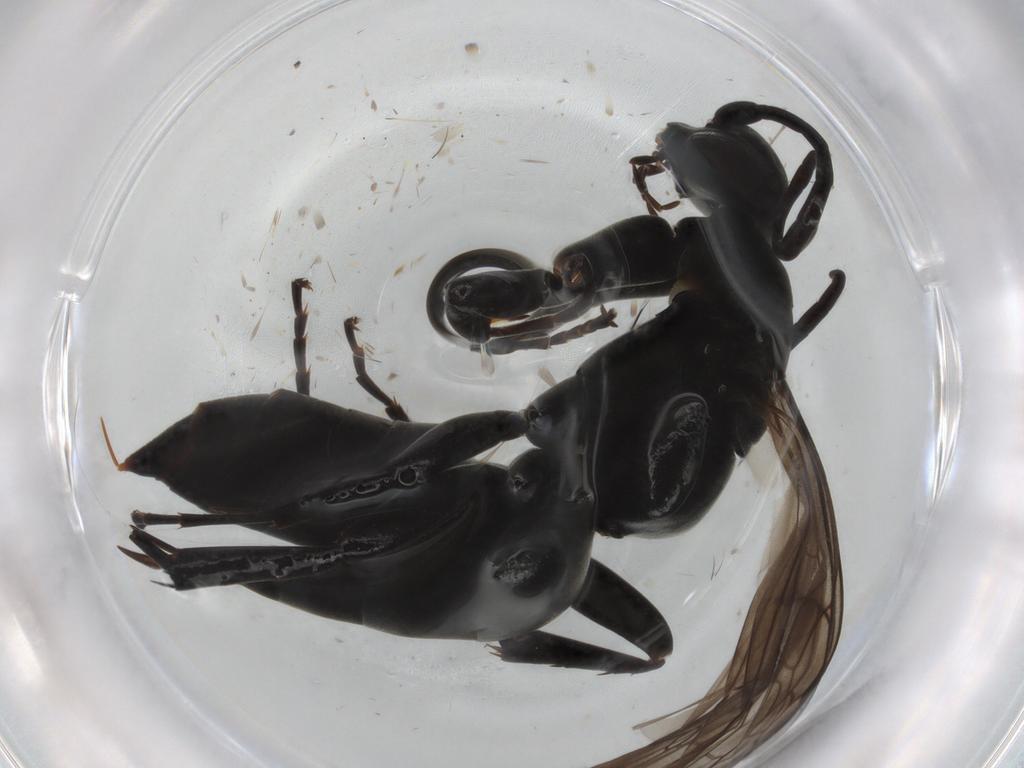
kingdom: Animalia
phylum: Arthropoda
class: Insecta
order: Hymenoptera
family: Pompilidae
